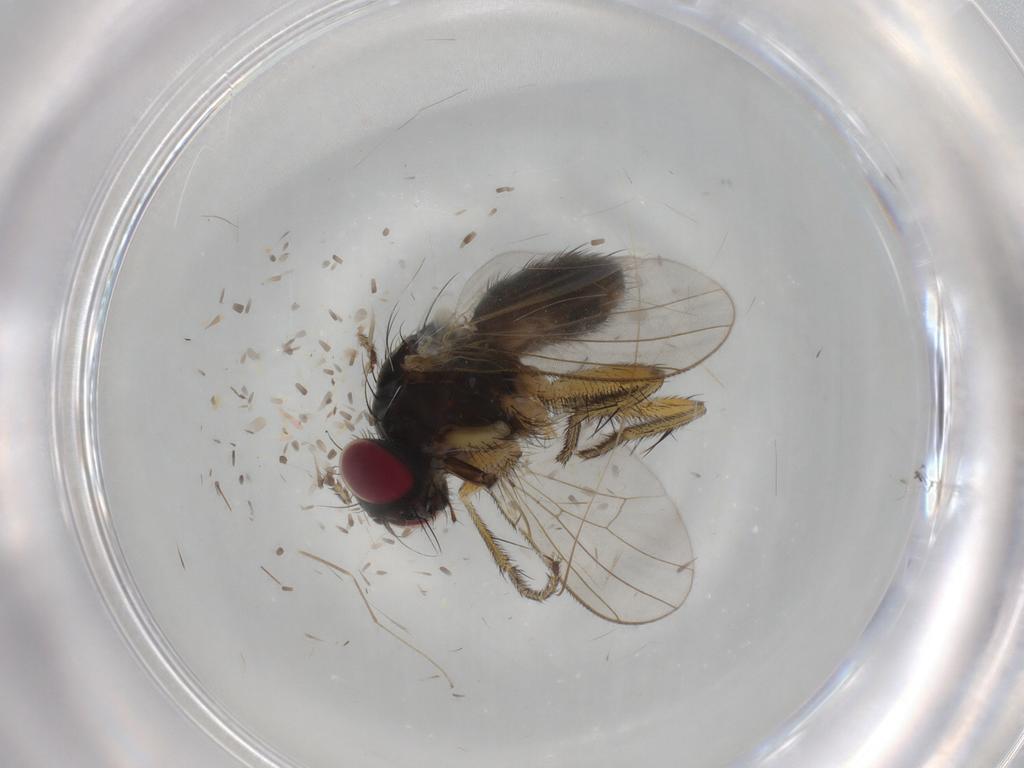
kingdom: Animalia
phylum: Arthropoda
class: Insecta
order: Diptera
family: Muscidae
